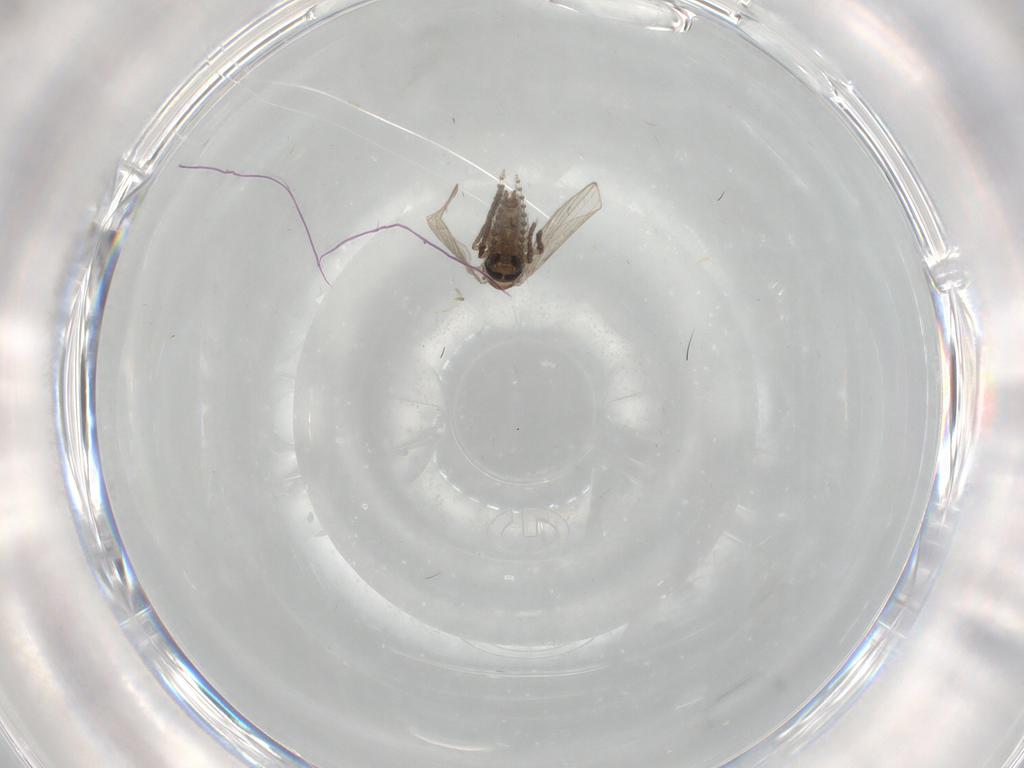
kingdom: Animalia
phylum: Arthropoda
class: Insecta
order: Diptera
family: Psychodidae
